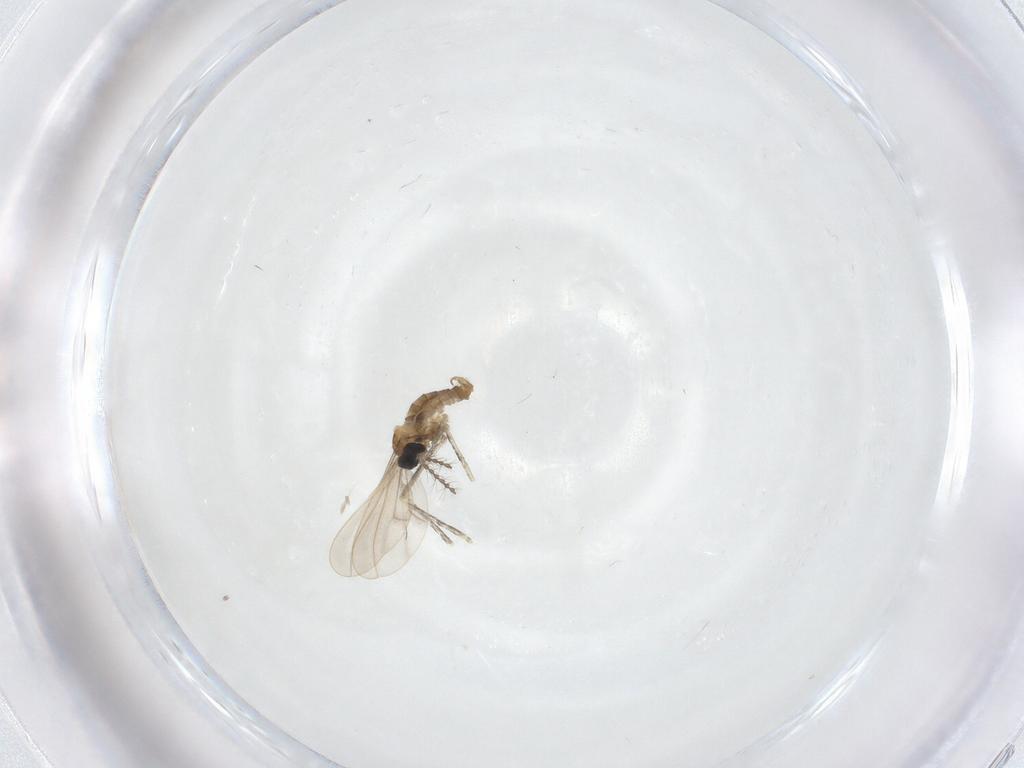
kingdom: Animalia
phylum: Arthropoda
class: Insecta
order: Diptera
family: Cecidomyiidae
